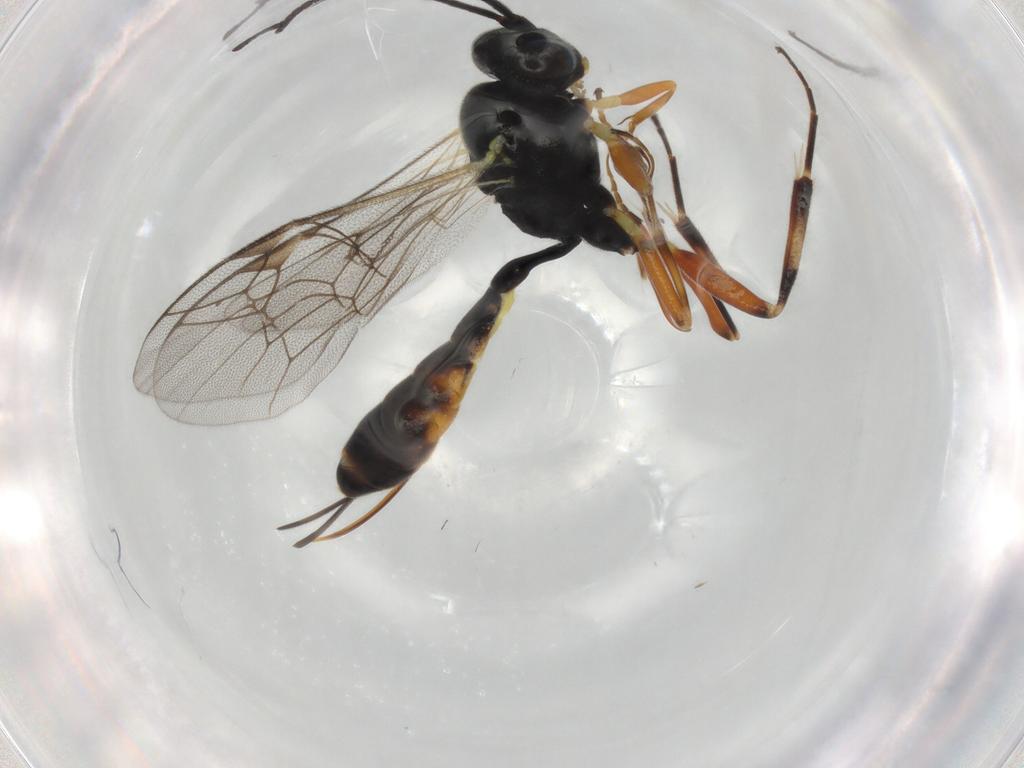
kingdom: Animalia
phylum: Arthropoda
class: Insecta
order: Hymenoptera
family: Ichneumonidae
